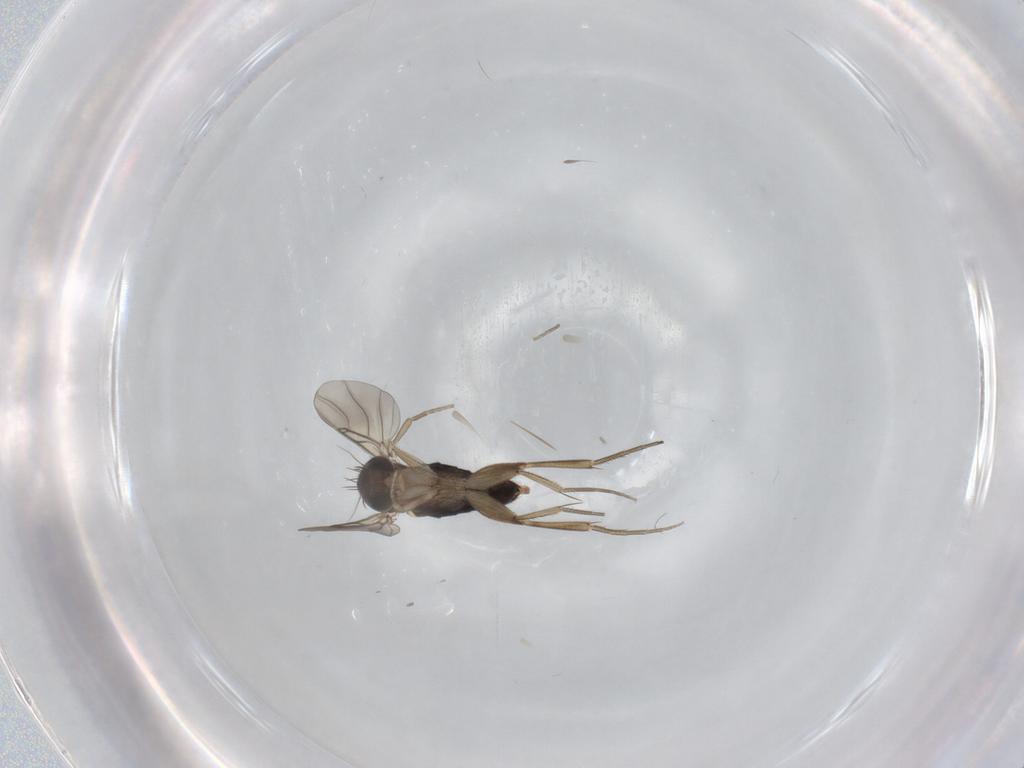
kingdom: Animalia
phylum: Arthropoda
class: Insecta
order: Diptera
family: Phoridae
